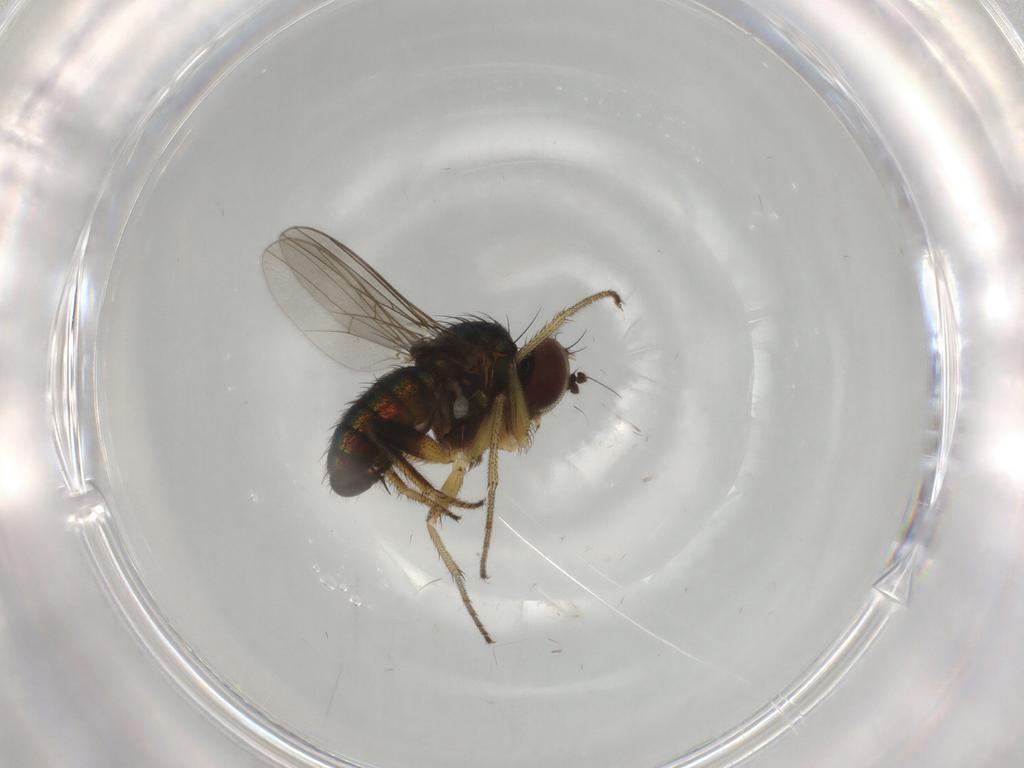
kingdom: Animalia
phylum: Arthropoda
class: Insecta
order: Diptera
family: Dolichopodidae
